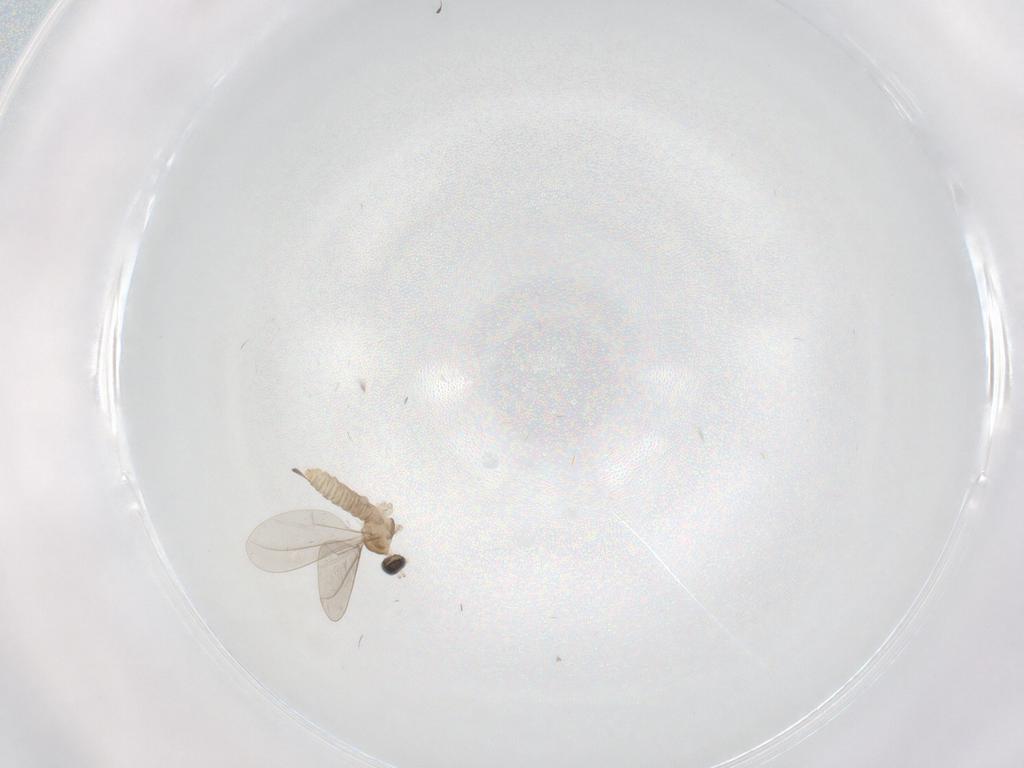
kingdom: Animalia
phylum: Arthropoda
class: Insecta
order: Diptera
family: Cecidomyiidae
